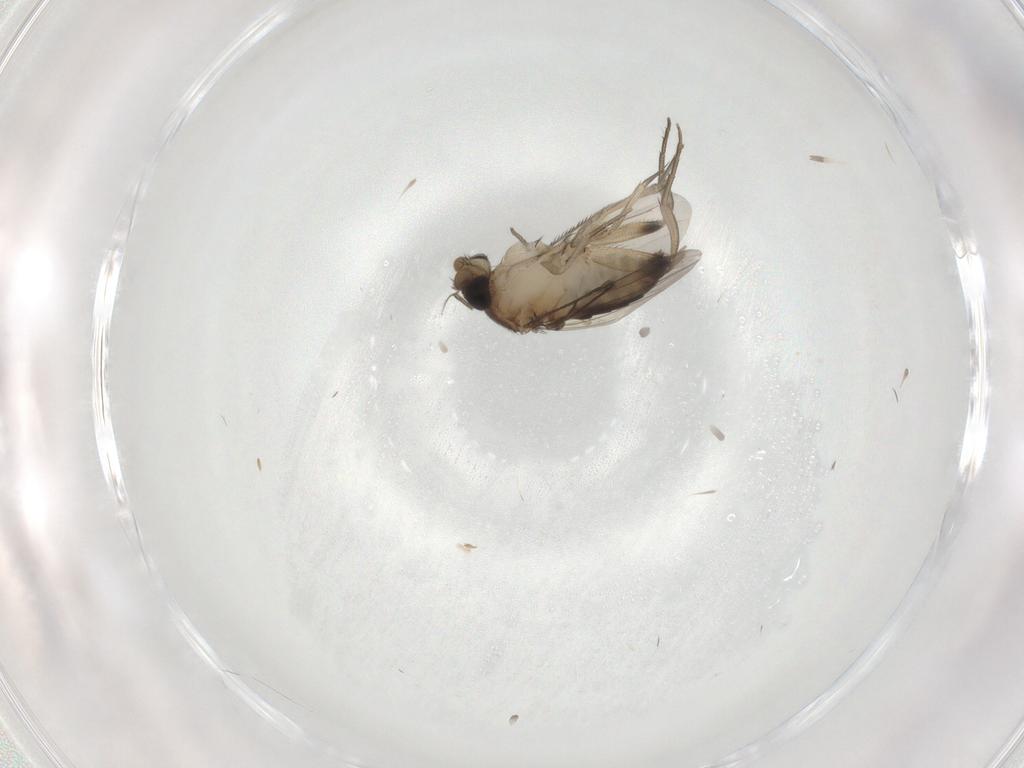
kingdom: Animalia
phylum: Arthropoda
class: Insecta
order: Diptera
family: Phoridae
